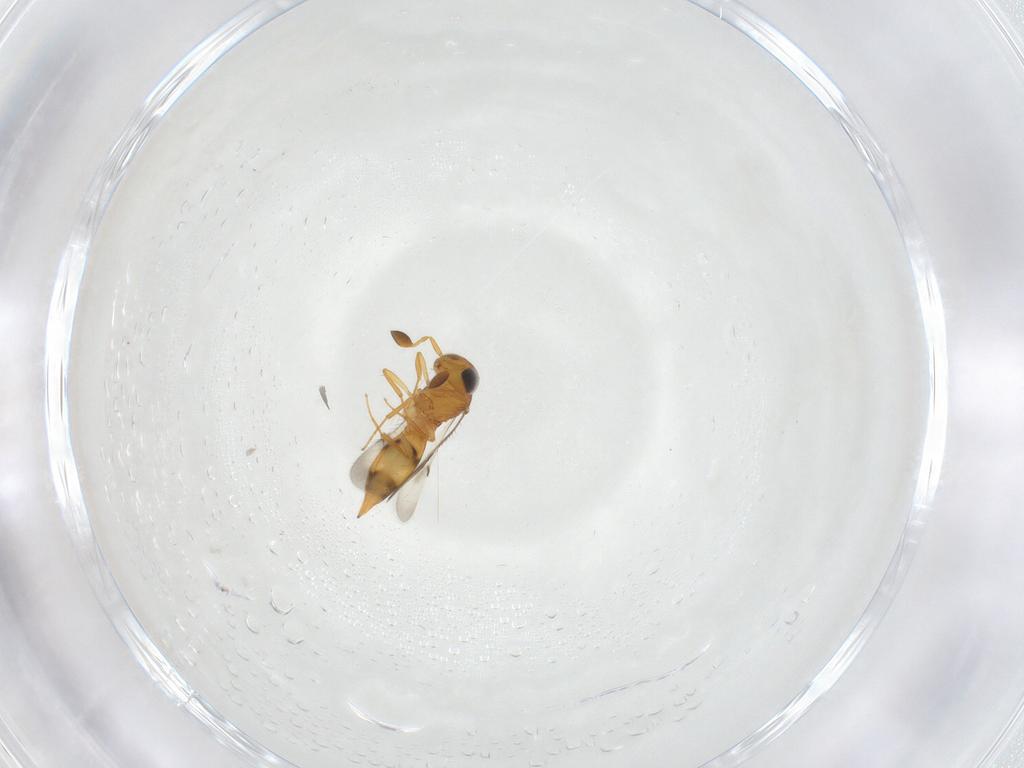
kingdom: Animalia
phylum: Arthropoda
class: Insecta
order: Hymenoptera
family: Scelionidae
